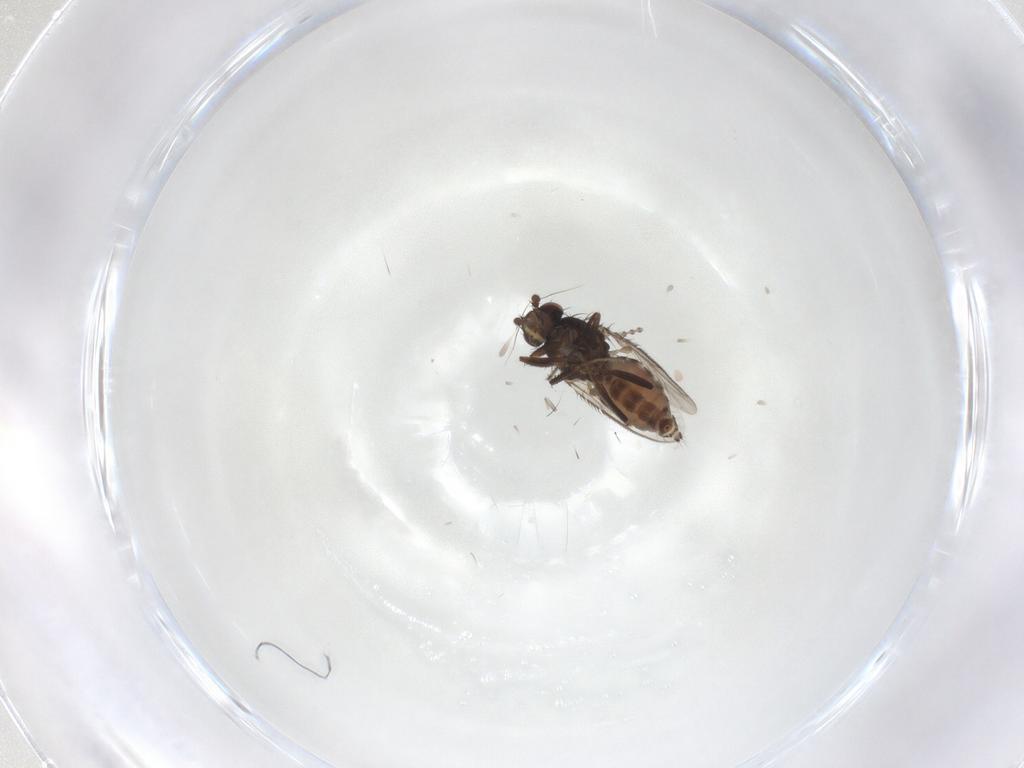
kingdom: Animalia
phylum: Arthropoda
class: Insecta
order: Diptera
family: Sphaeroceridae
